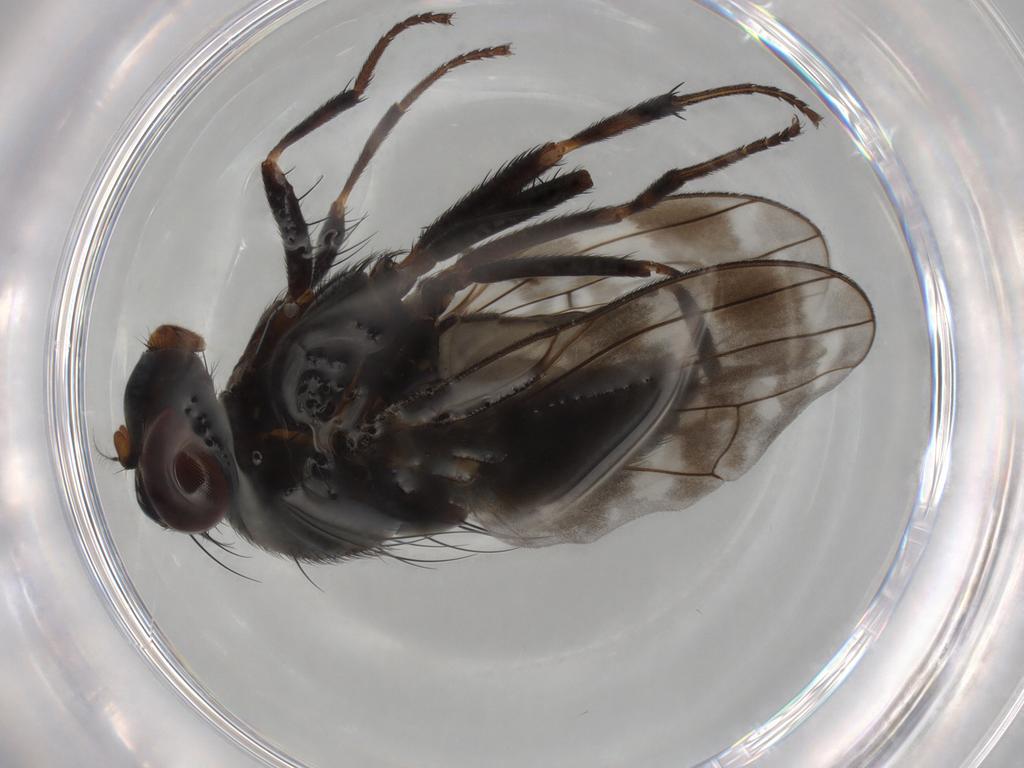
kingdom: Animalia
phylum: Arthropoda
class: Insecta
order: Diptera
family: Lauxaniidae
